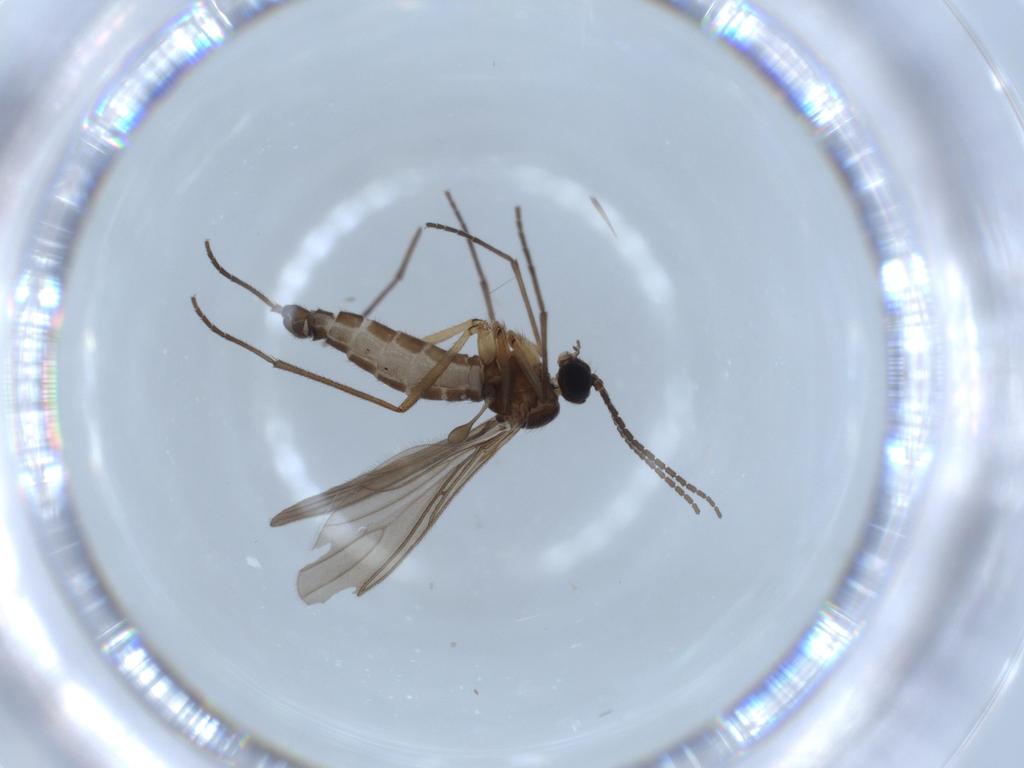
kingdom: Animalia
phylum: Arthropoda
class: Insecta
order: Diptera
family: Sciaridae
